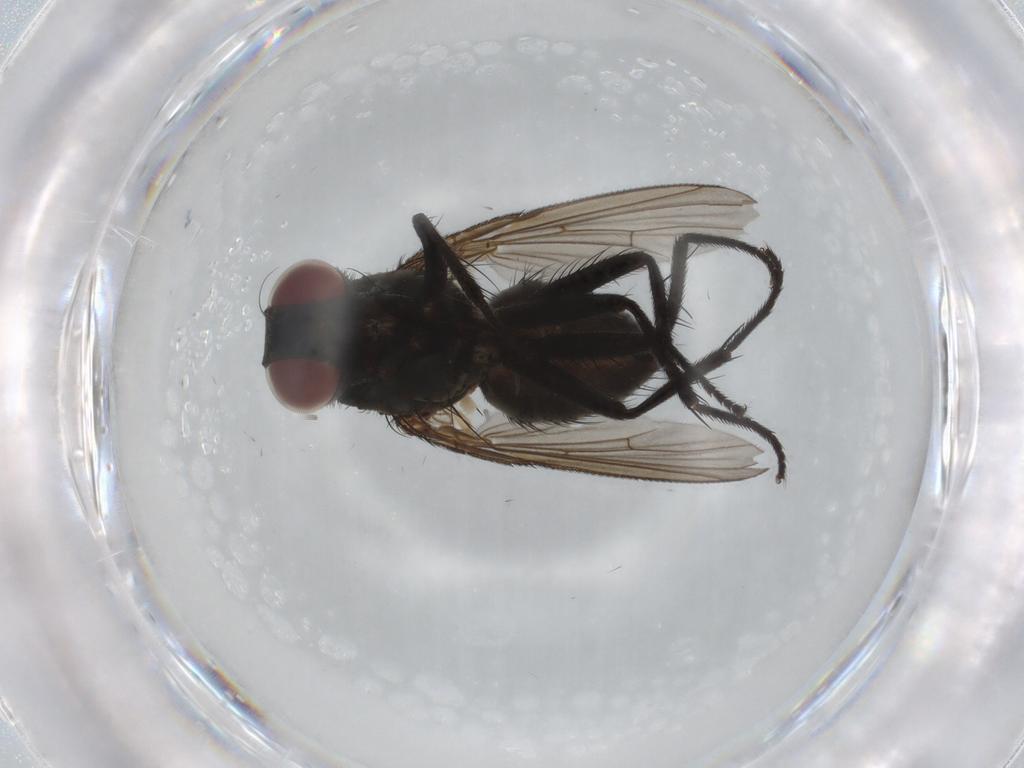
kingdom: Animalia
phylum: Arthropoda
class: Insecta
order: Diptera
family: Muscidae
